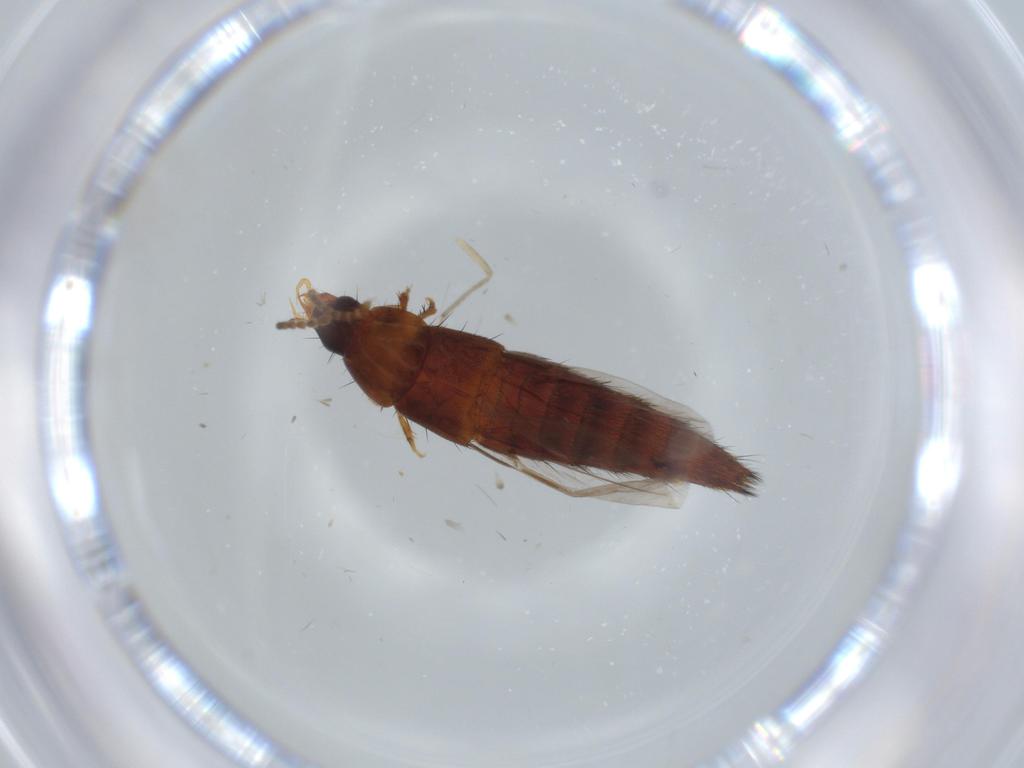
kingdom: Animalia
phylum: Arthropoda
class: Insecta
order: Coleoptera
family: Staphylinidae
